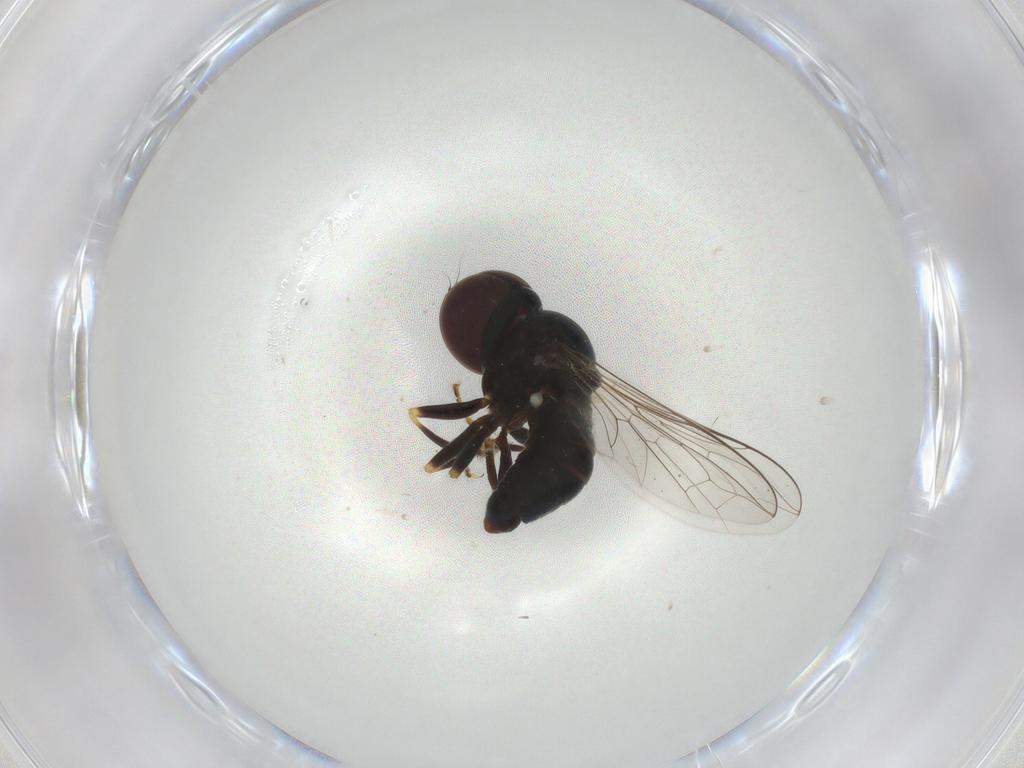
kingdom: Animalia
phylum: Arthropoda
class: Insecta
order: Diptera
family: Pipunculidae
